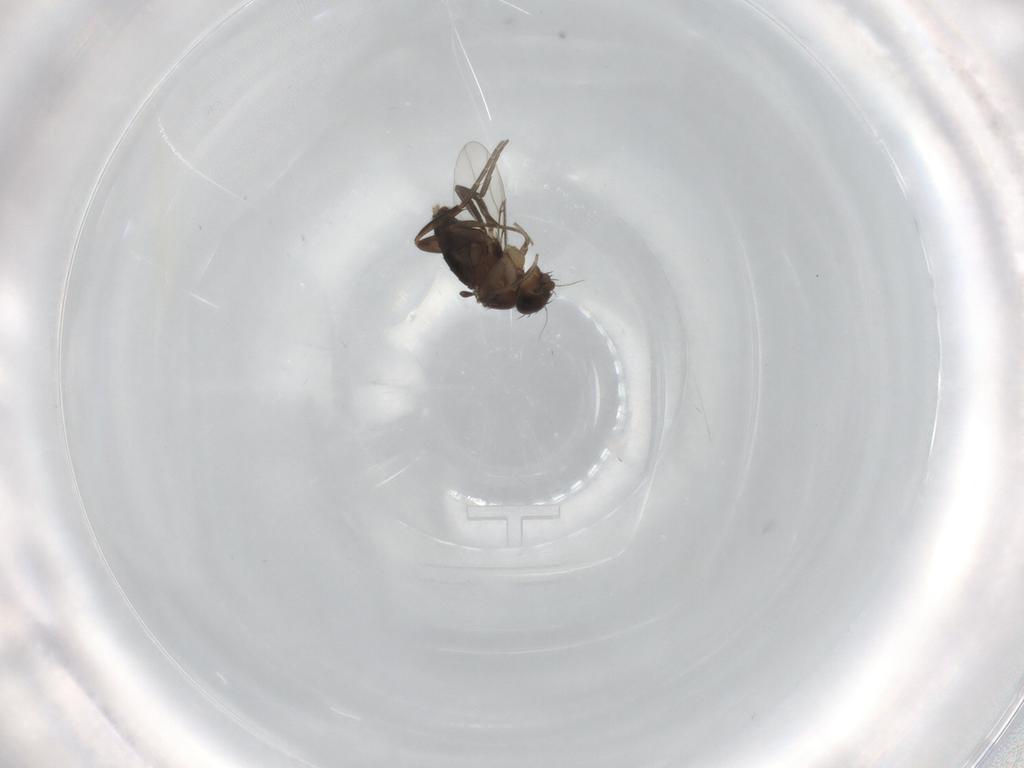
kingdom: Animalia
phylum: Arthropoda
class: Insecta
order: Diptera
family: Phoridae
